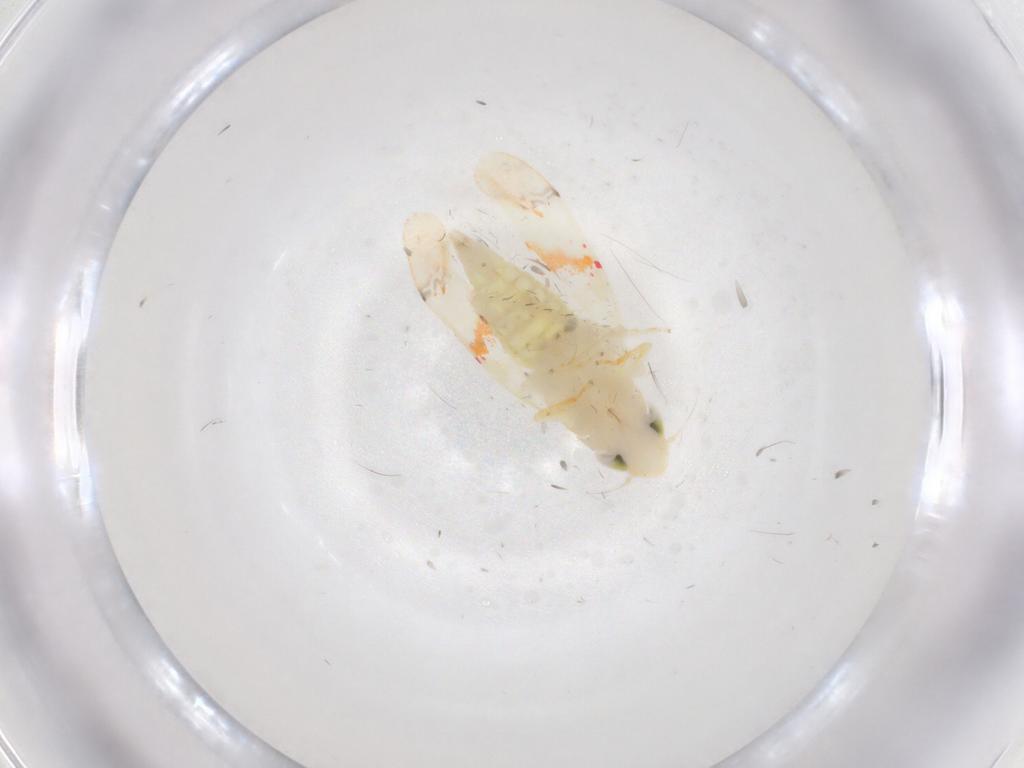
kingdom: Animalia
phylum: Arthropoda
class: Insecta
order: Hemiptera
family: Cicadellidae
